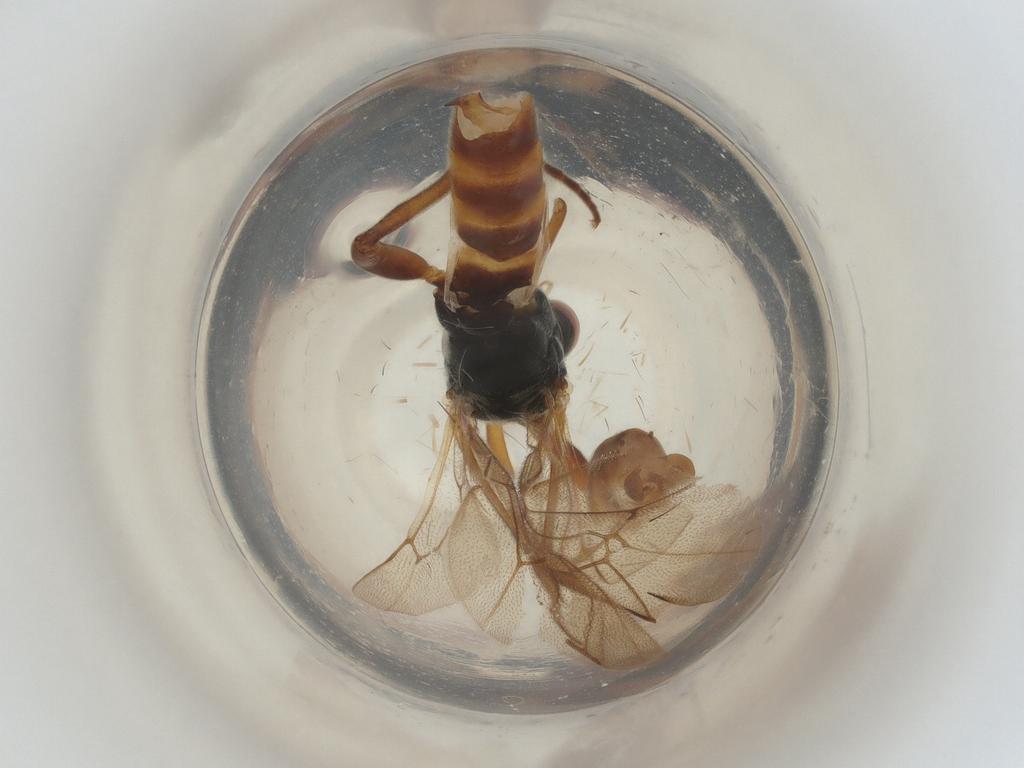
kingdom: Animalia
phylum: Arthropoda
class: Insecta
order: Hymenoptera
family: Ichneumonidae
